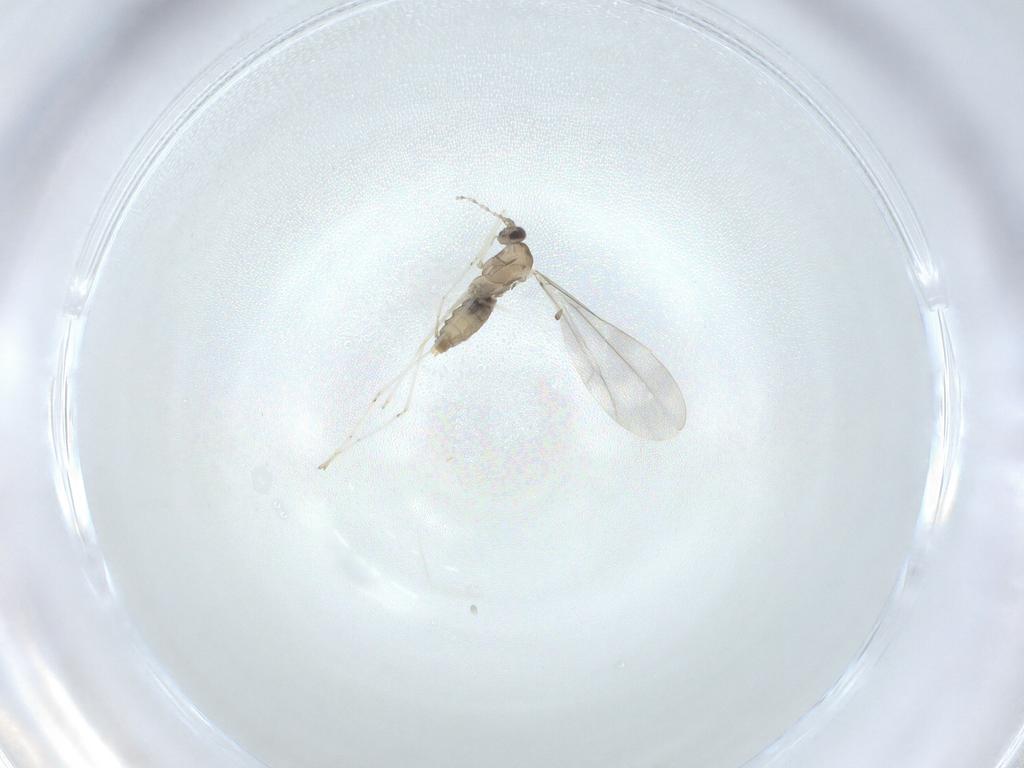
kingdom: Animalia
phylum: Arthropoda
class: Insecta
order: Diptera
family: Cecidomyiidae
